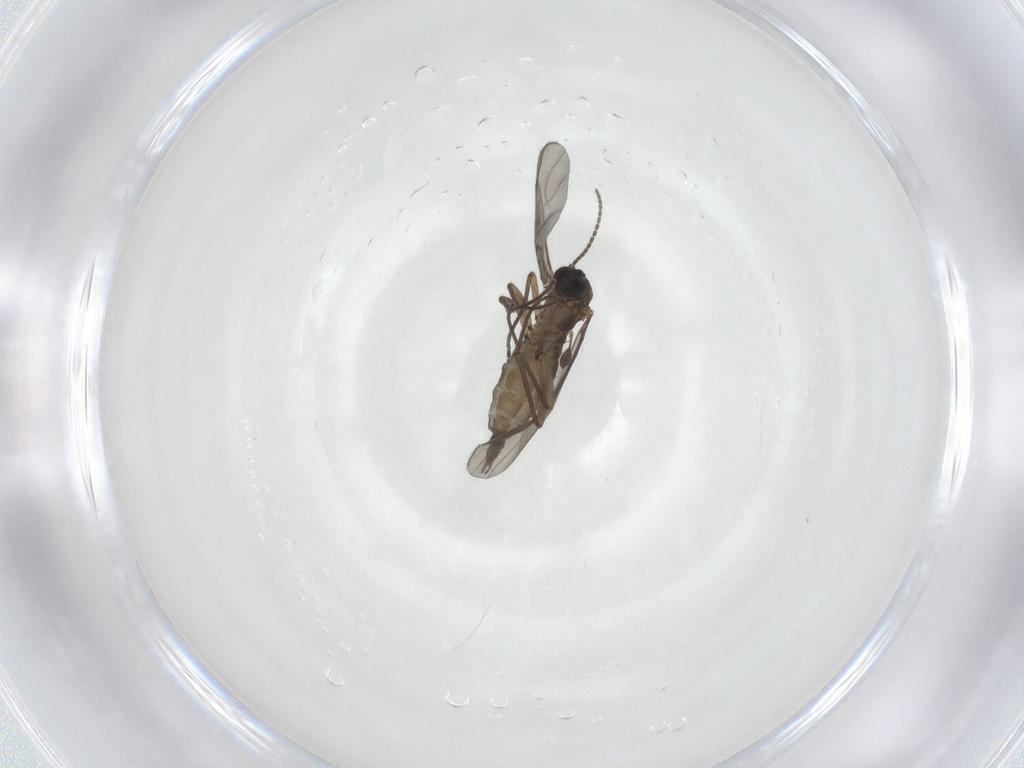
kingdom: Animalia
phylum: Arthropoda
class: Insecta
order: Diptera
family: Sciaridae
